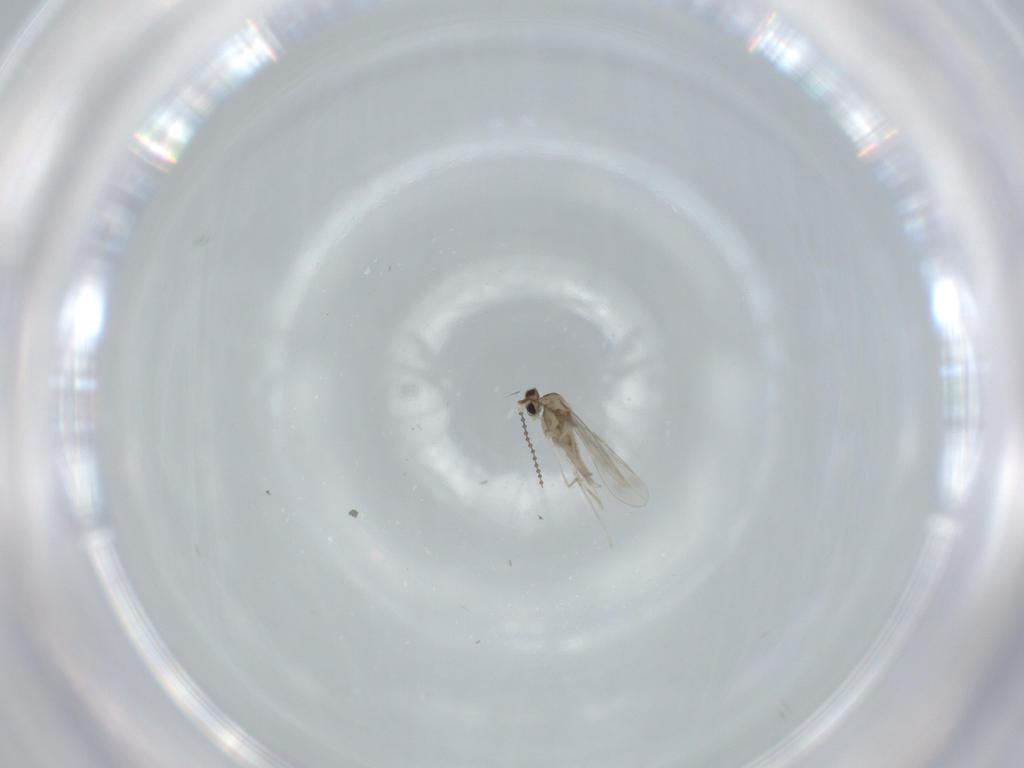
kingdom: Animalia
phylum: Arthropoda
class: Insecta
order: Diptera
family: Cecidomyiidae
